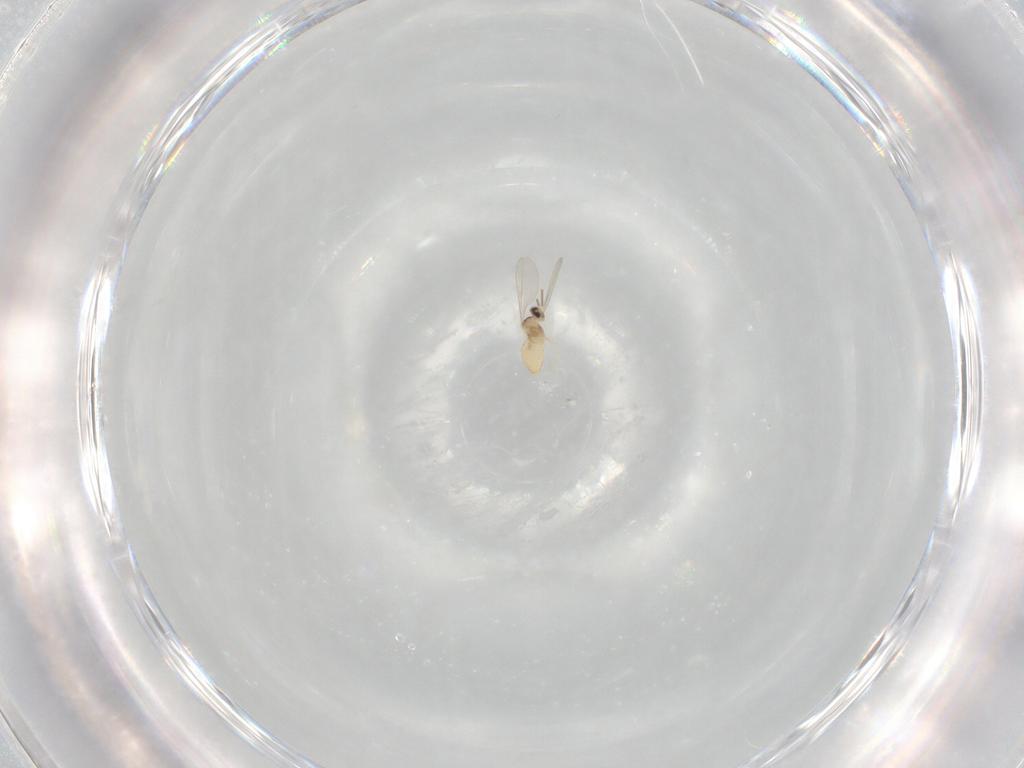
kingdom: Animalia
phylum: Arthropoda
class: Insecta
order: Diptera
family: Cecidomyiidae
